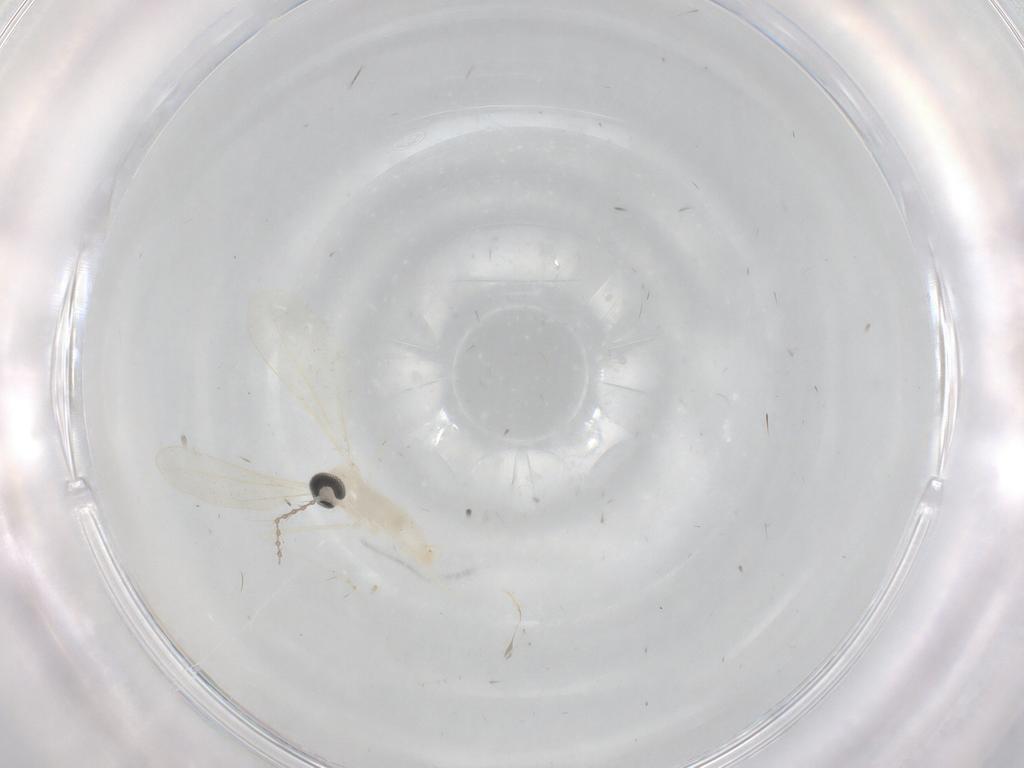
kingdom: Animalia
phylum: Arthropoda
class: Insecta
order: Diptera
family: Cecidomyiidae
